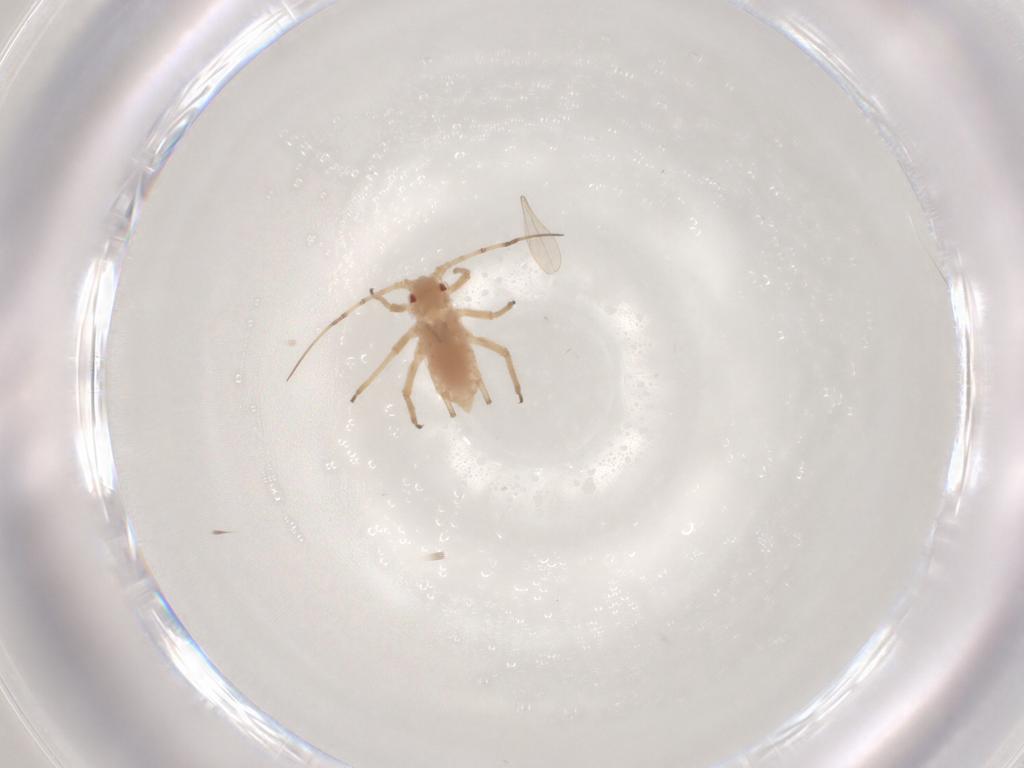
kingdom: Animalia
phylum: Arthropoda
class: Insecta
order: Hemiptera
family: Aphididae
